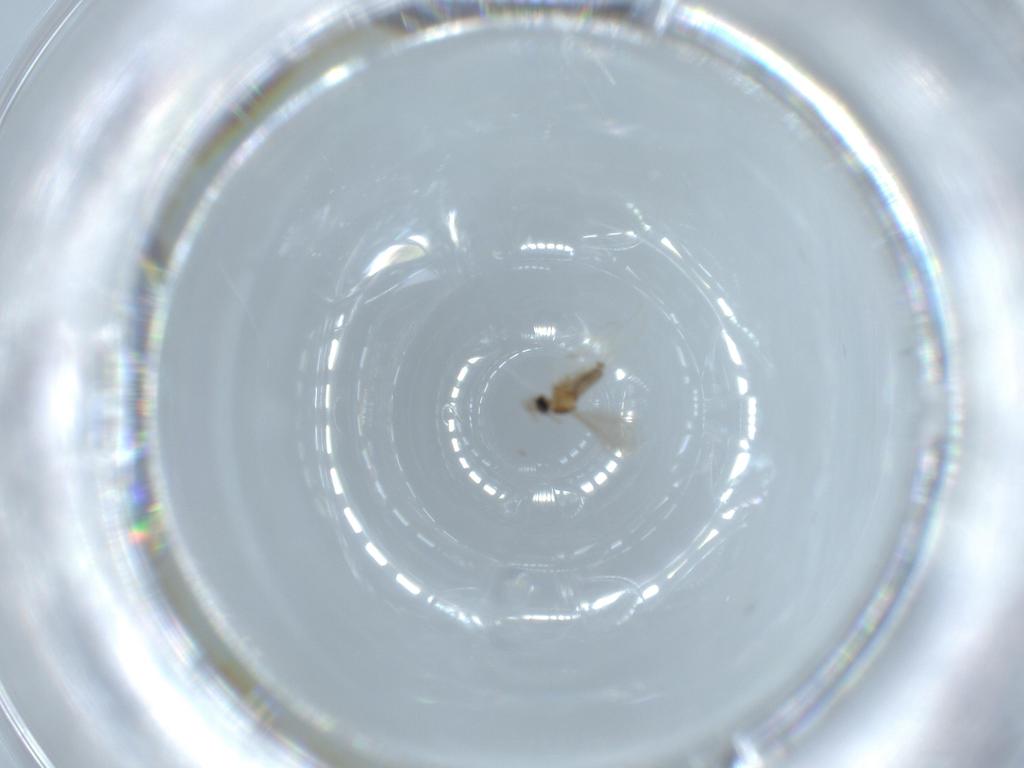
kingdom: Animalia
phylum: Arthropoda
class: Insecta
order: Diptera
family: Cecidomyiidae
